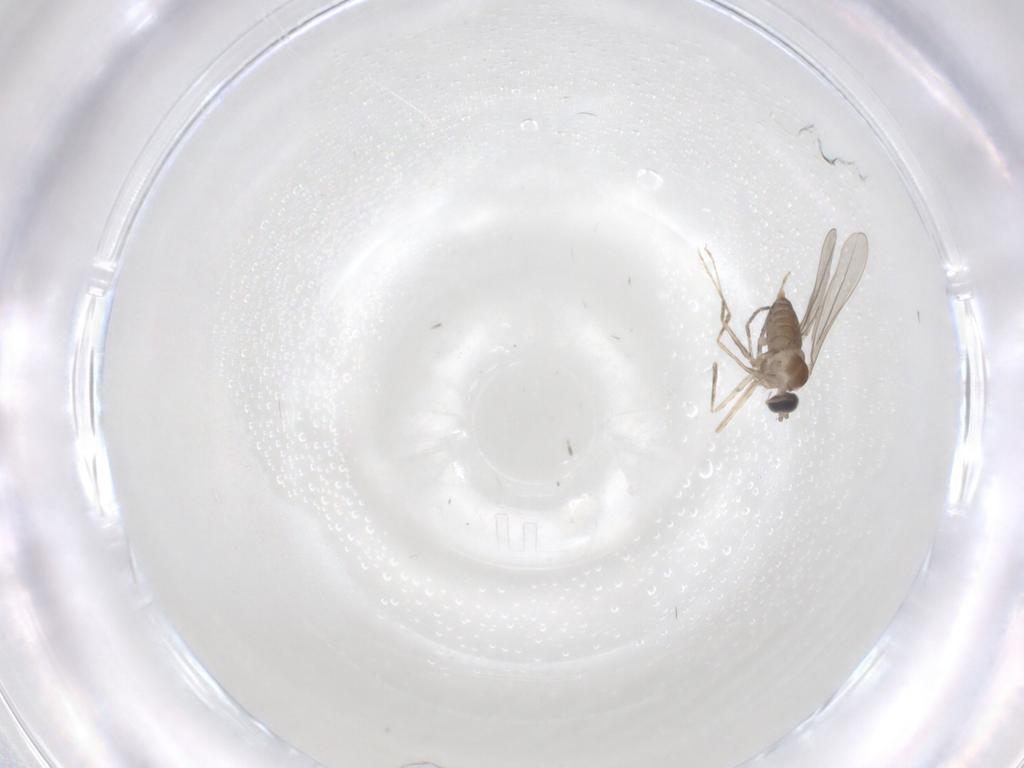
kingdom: Animalia
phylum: Arthropoda
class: Insecta
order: Diptera
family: Cecidomyiidae
